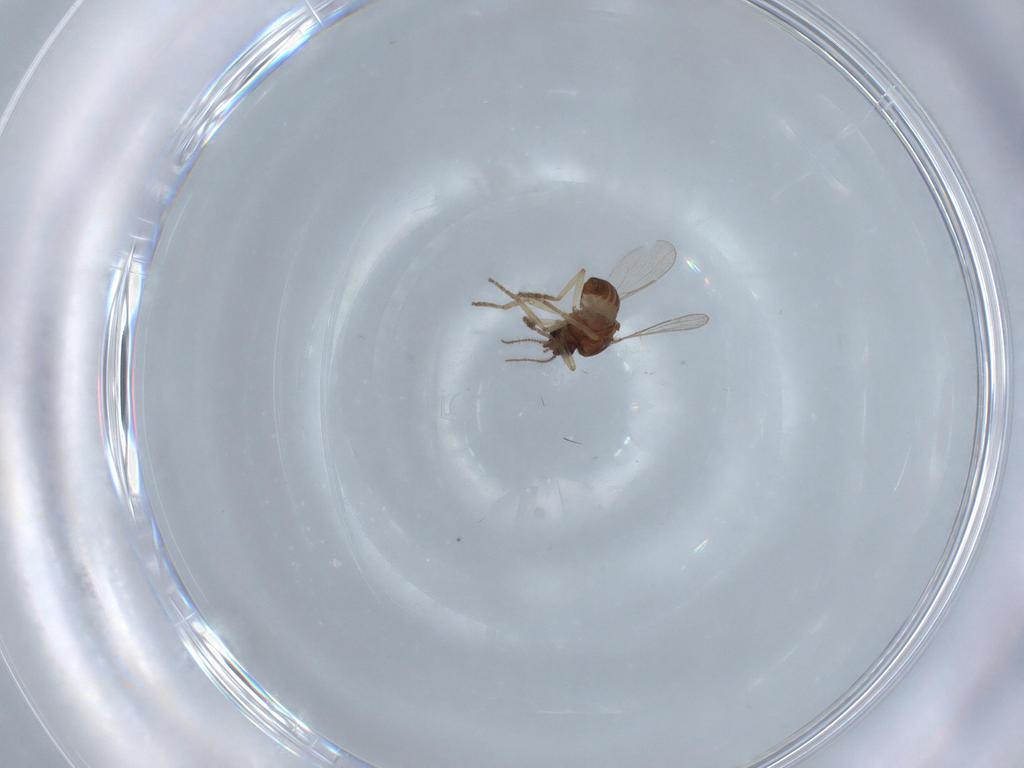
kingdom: Animalia
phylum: Arthropoda
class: Insecta
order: Diptera
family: Ceratopogonidae
